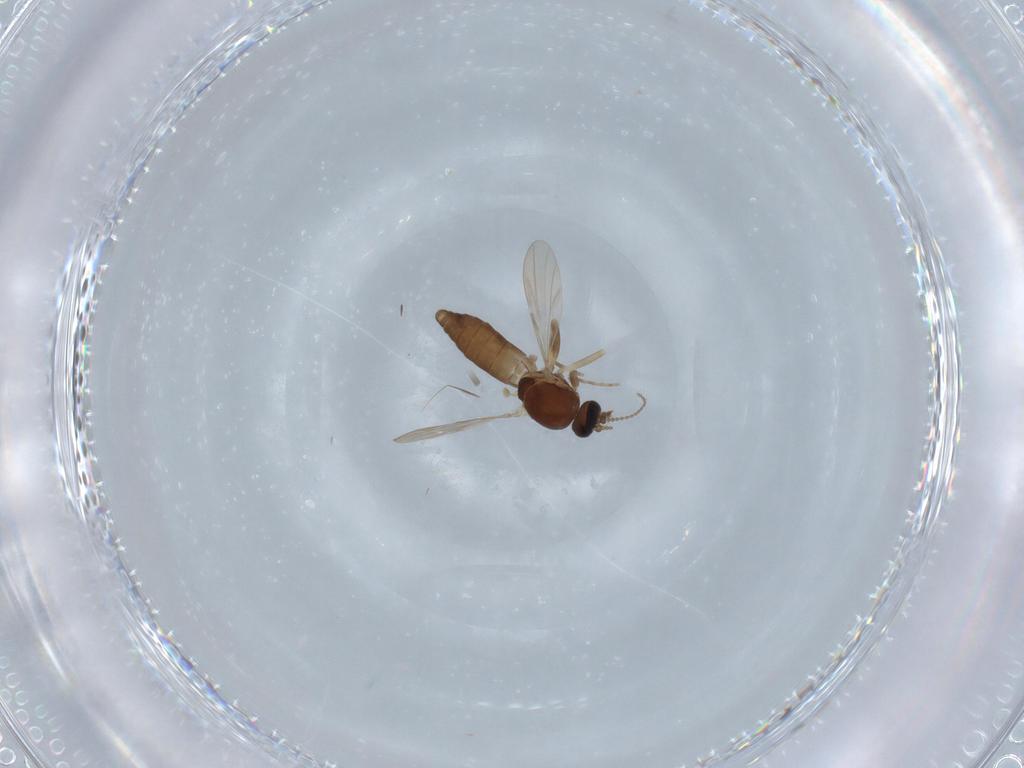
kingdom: Animalia
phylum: Arthropoda
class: Insecta
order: Diptera
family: Ceratopogonidae
